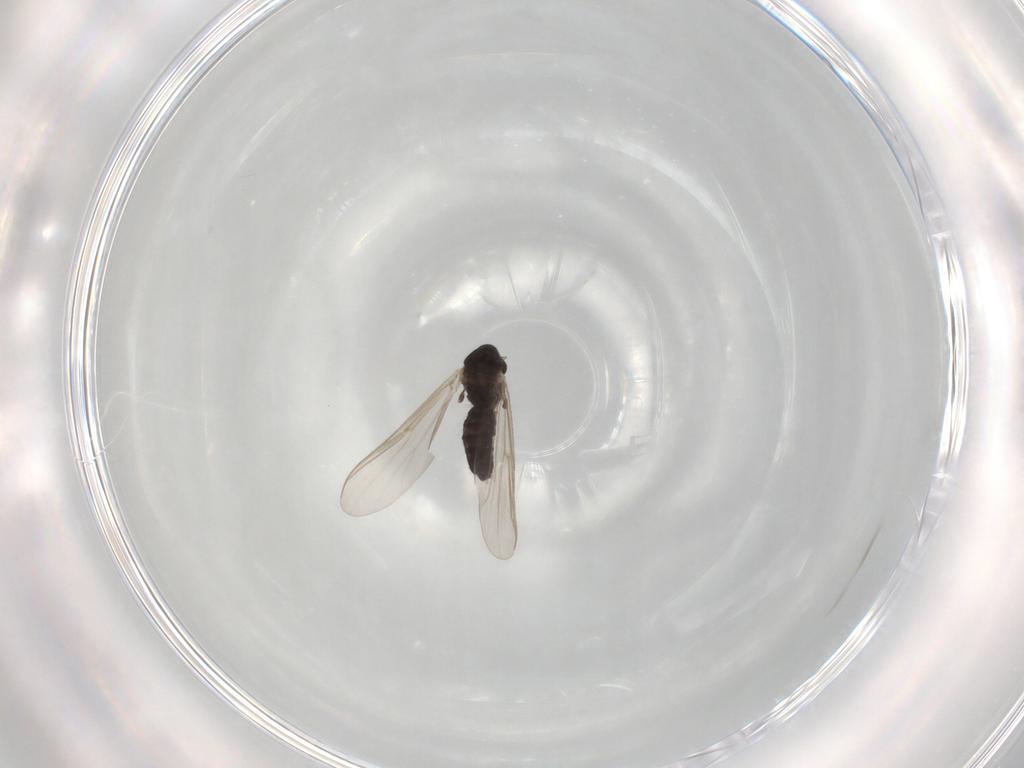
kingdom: Animalia
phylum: Arthropoda
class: Insecta
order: Diptera
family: Chironomidae
